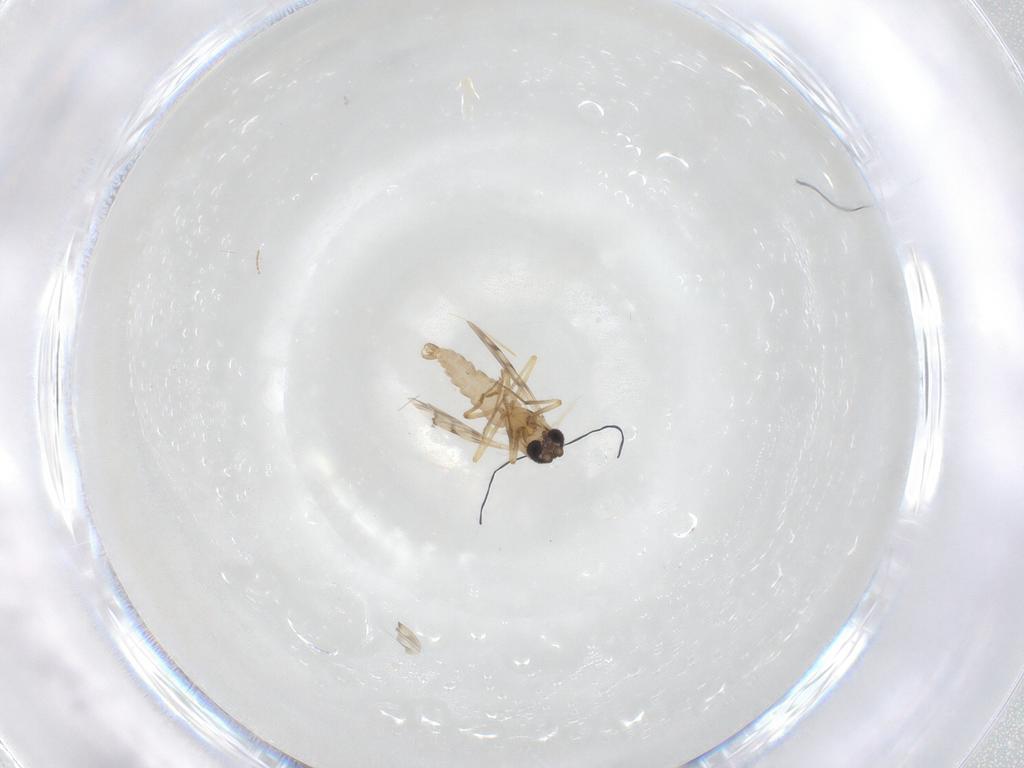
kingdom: Animalia
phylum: Arthropoda
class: Insecta
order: Diptera
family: Ceratopogonidae
